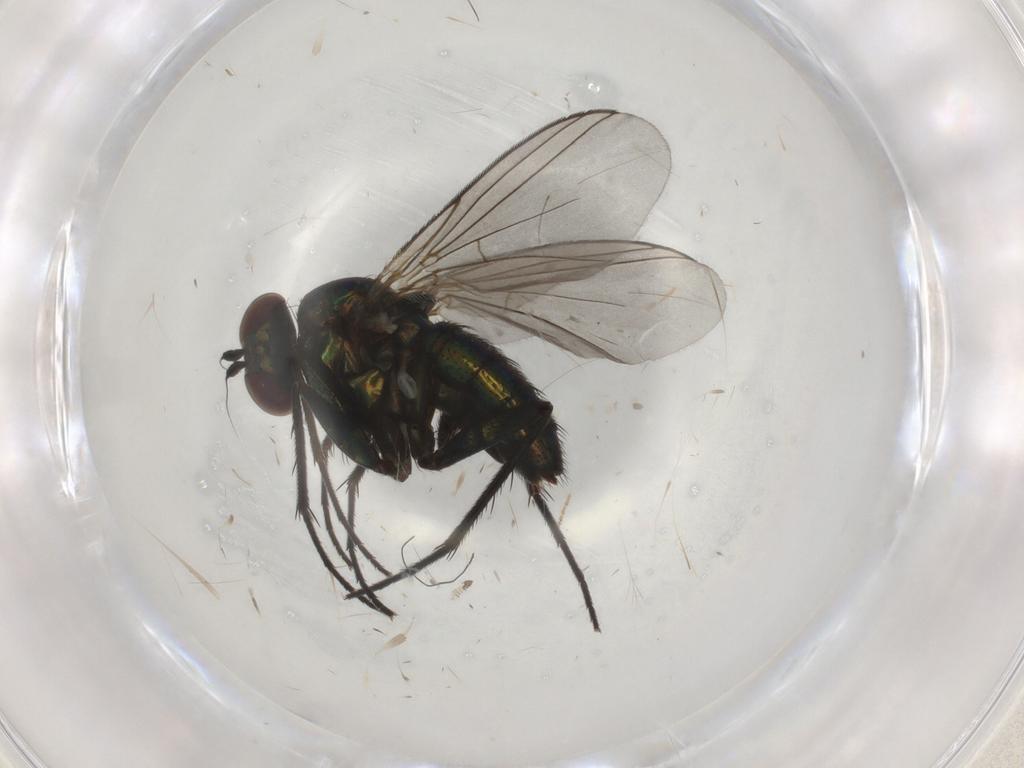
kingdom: Animalia
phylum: Arthropoda
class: Insecta
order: Diptera
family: Dolichopodidae
